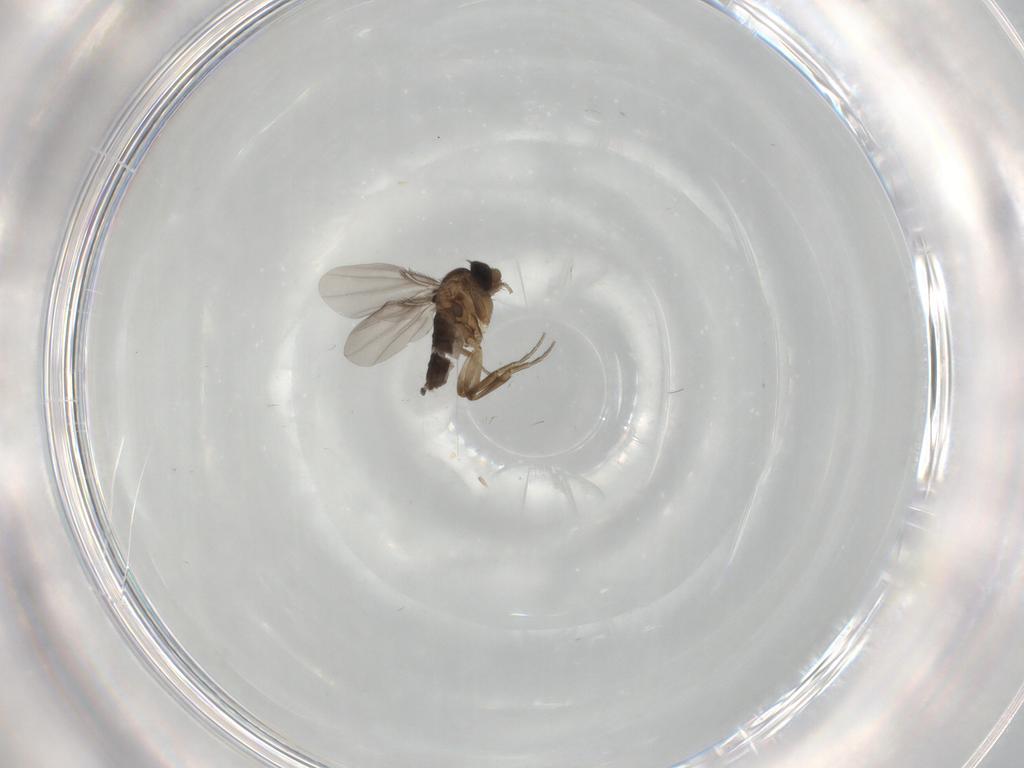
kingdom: Animalia
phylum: Arthropoda
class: Insecta
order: Diptera
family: Phoridae
